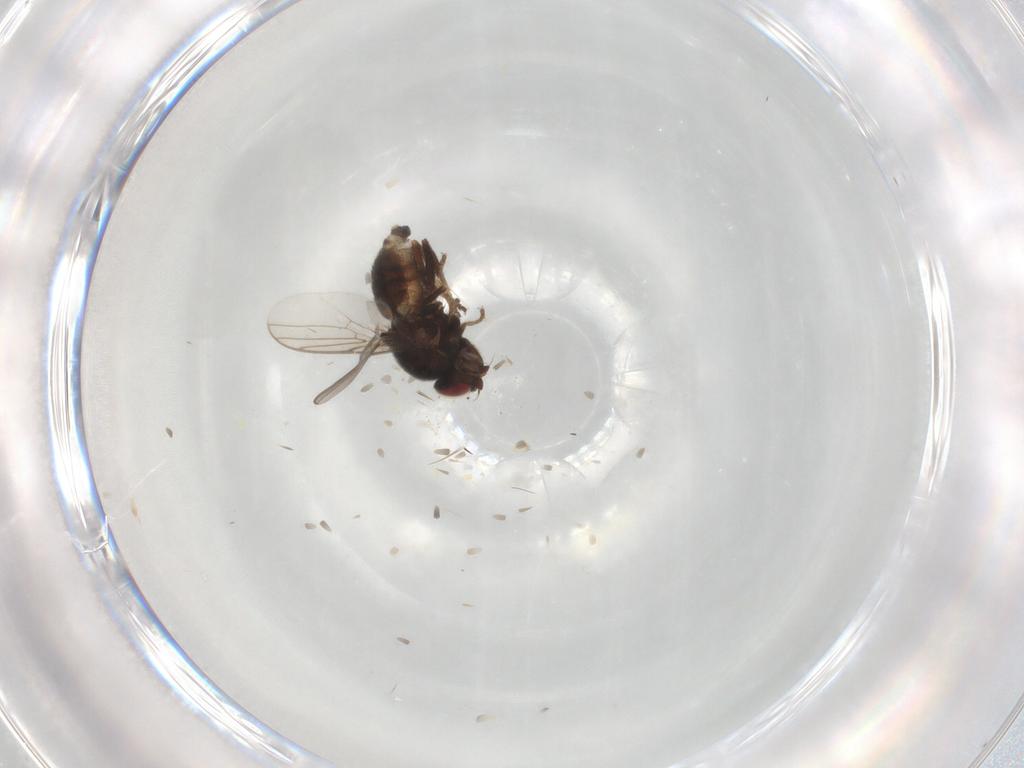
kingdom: Animalia
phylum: Arthropoda
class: Insecta
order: Diptera
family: Chloropidae
